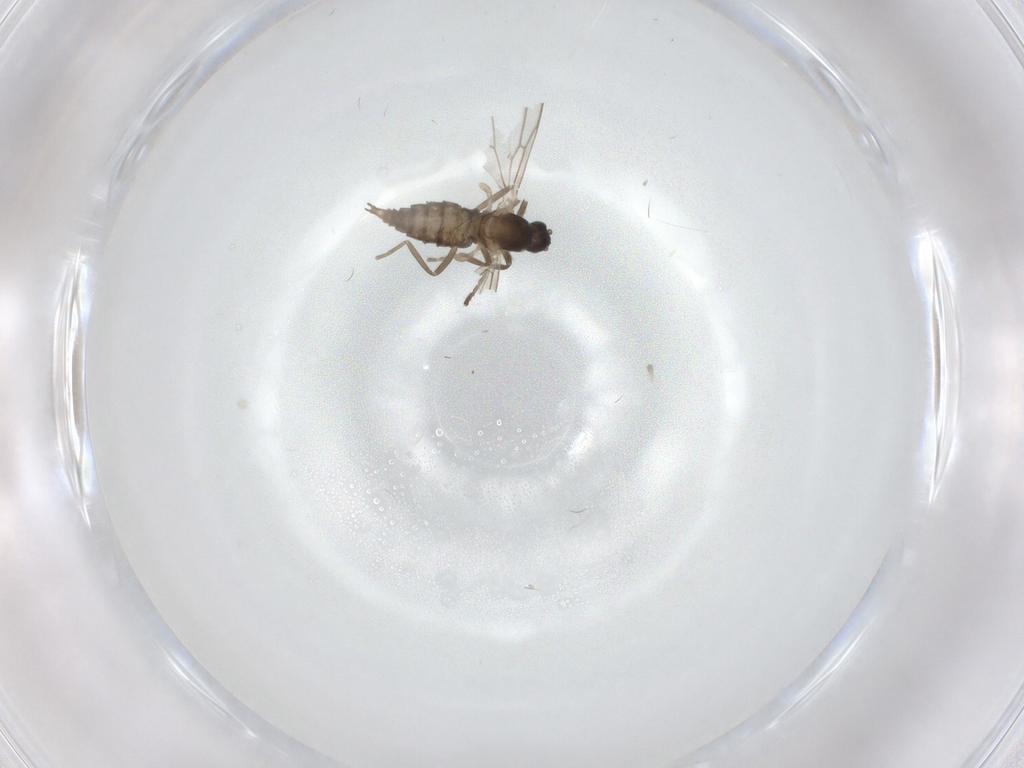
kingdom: Animalia
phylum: Arthropoda
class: Insecta
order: Diptera
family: Cecidomyiidae
